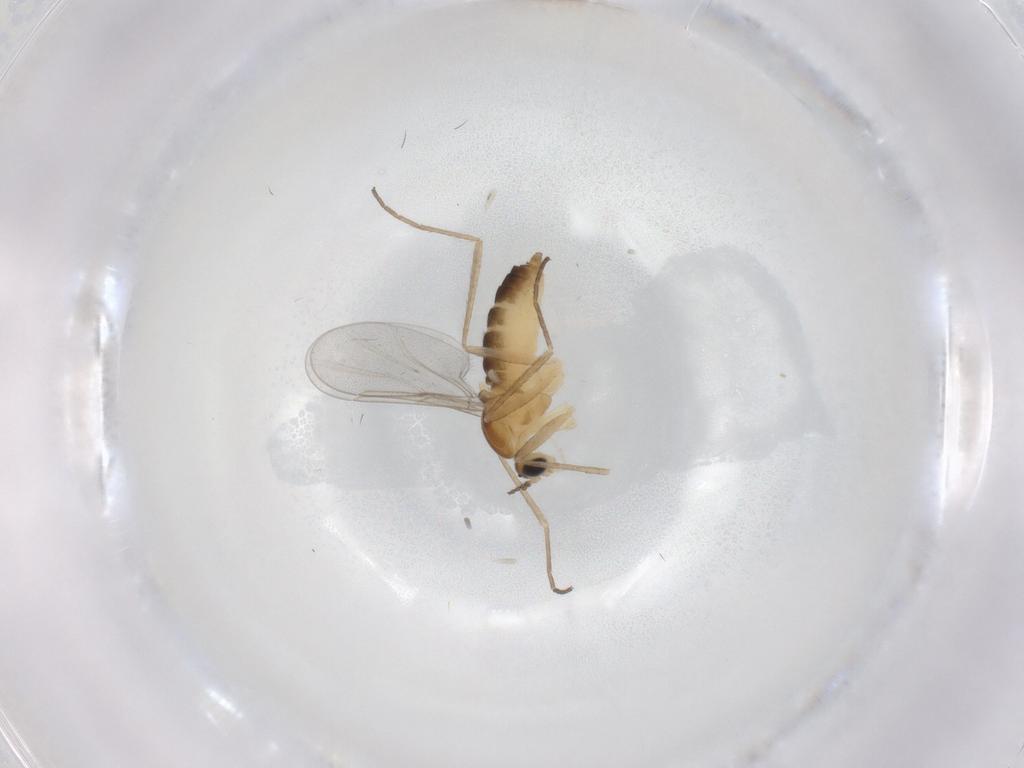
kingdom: Animalia
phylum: Arthropoda
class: Insecta
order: Diptera
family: Cecidomyiidae
